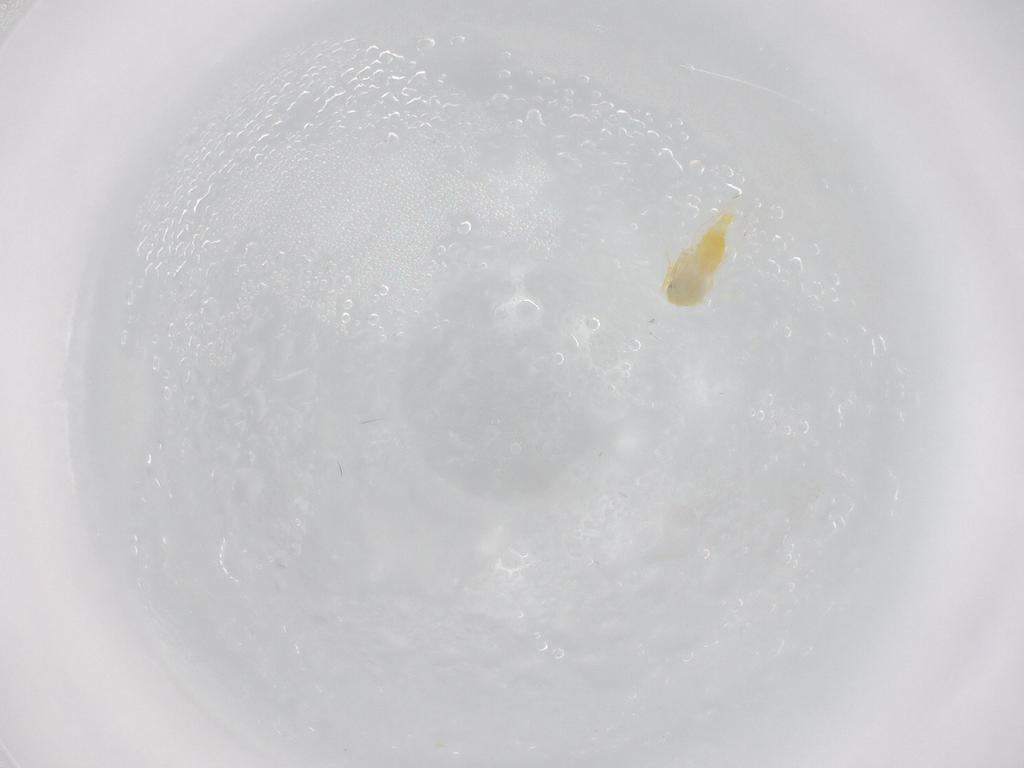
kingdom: Animalia
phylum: Arthropoda
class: Insecta
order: Hemiptera
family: Aleyrodidae
